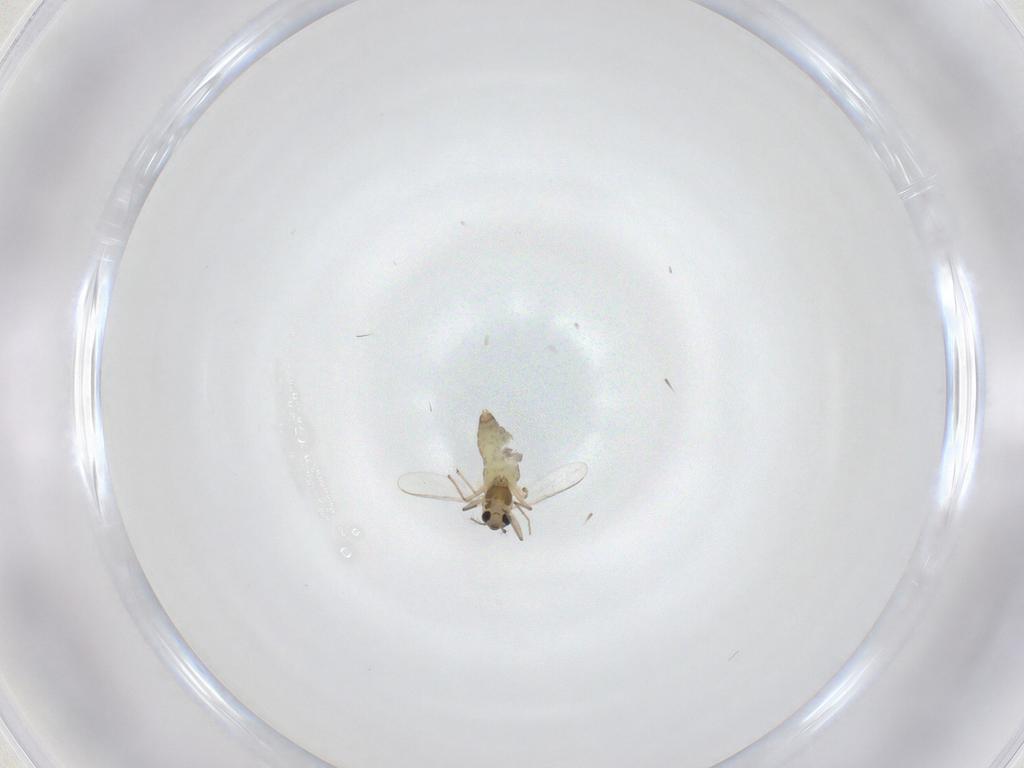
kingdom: Animalia
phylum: Arthropoda
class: Insecta
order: Diptera
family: Chironomidae
